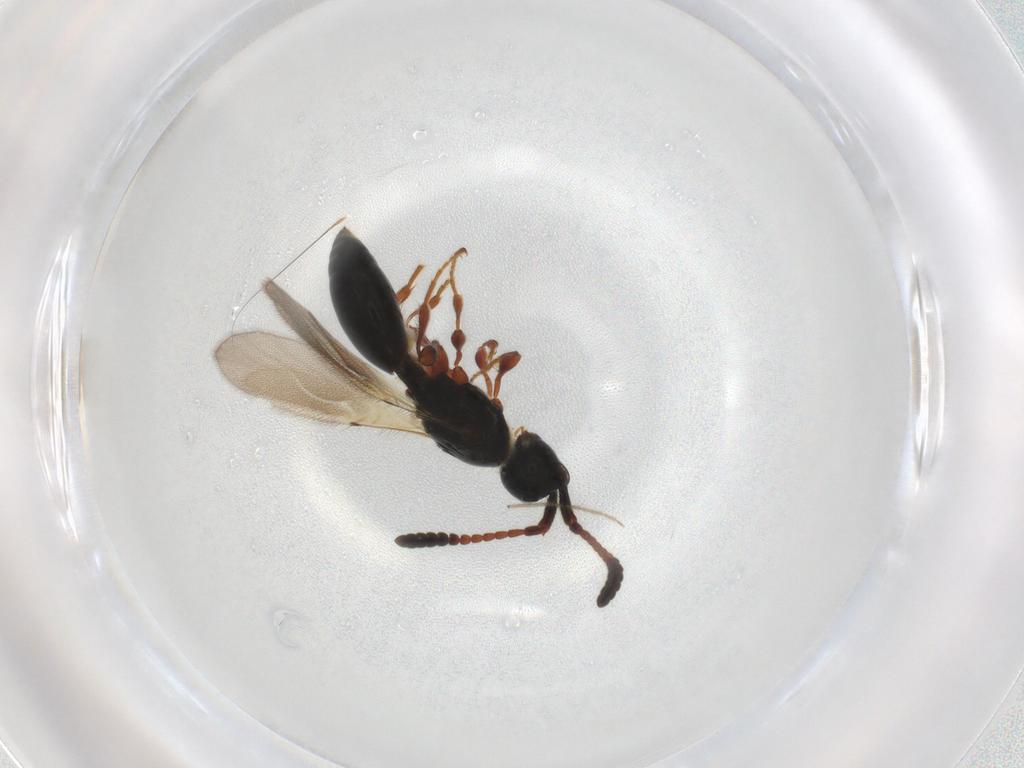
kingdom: Animalia
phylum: Arthropoda
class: Insecta
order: Hymenoptera
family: Diapriidae
